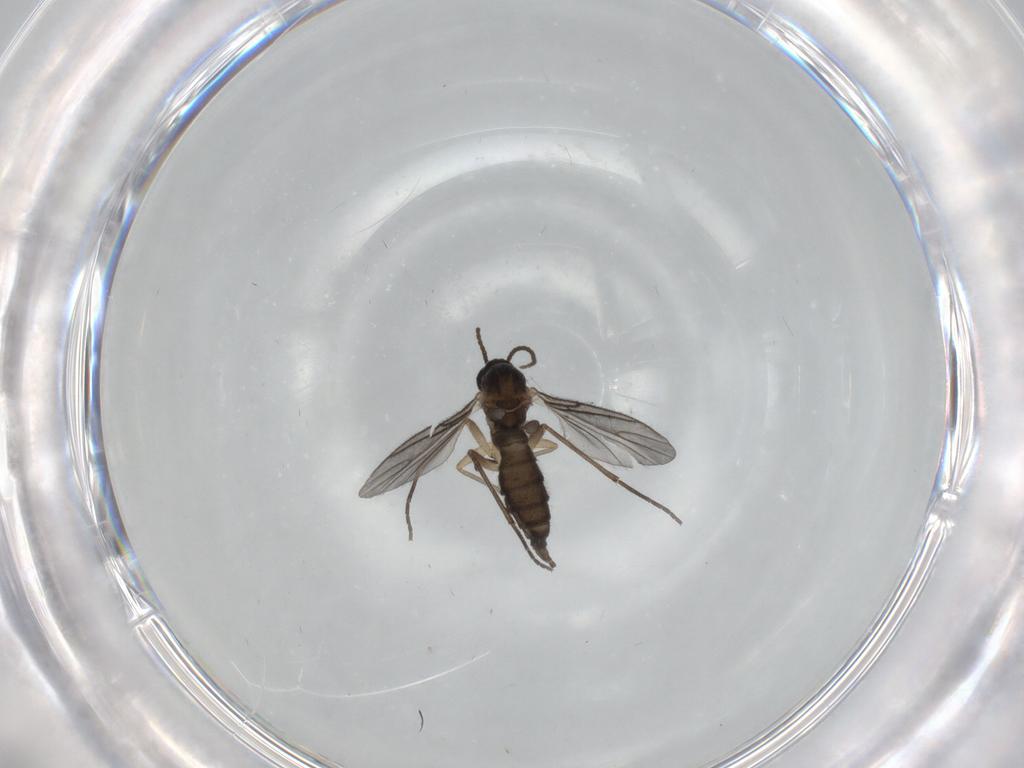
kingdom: Animalia
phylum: Arthropoda
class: Insecta
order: Diptera
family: Sciaridae
